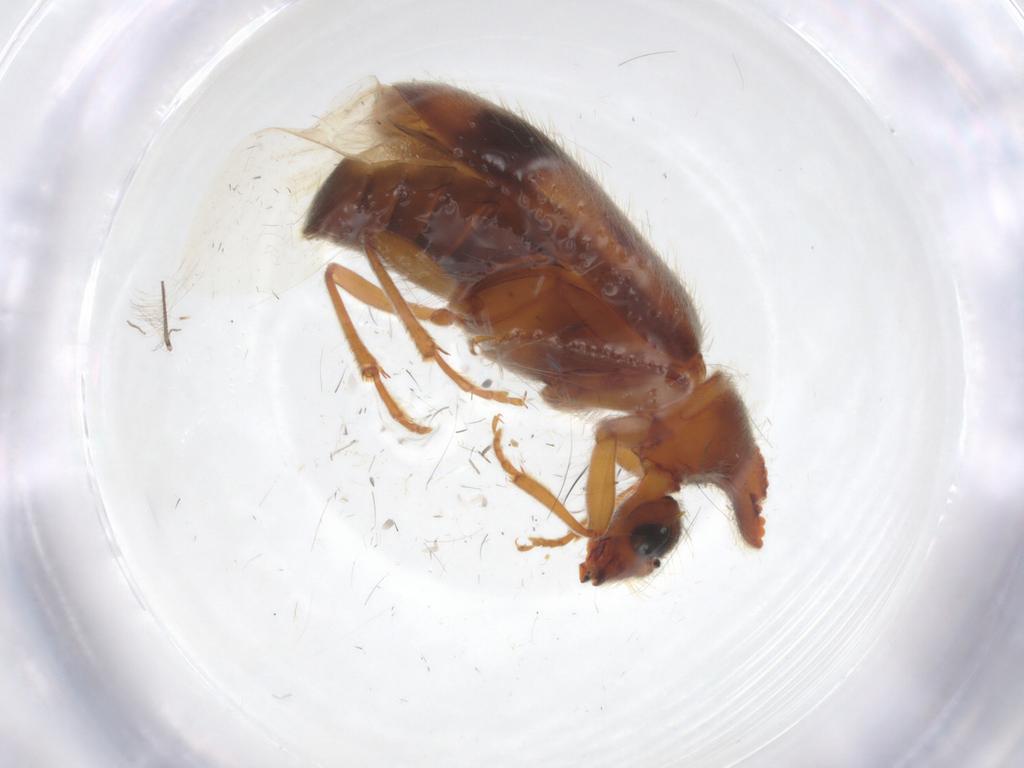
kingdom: Animalia
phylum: Arthropoda
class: Insecta
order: Coleoptera
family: Anthicidae
